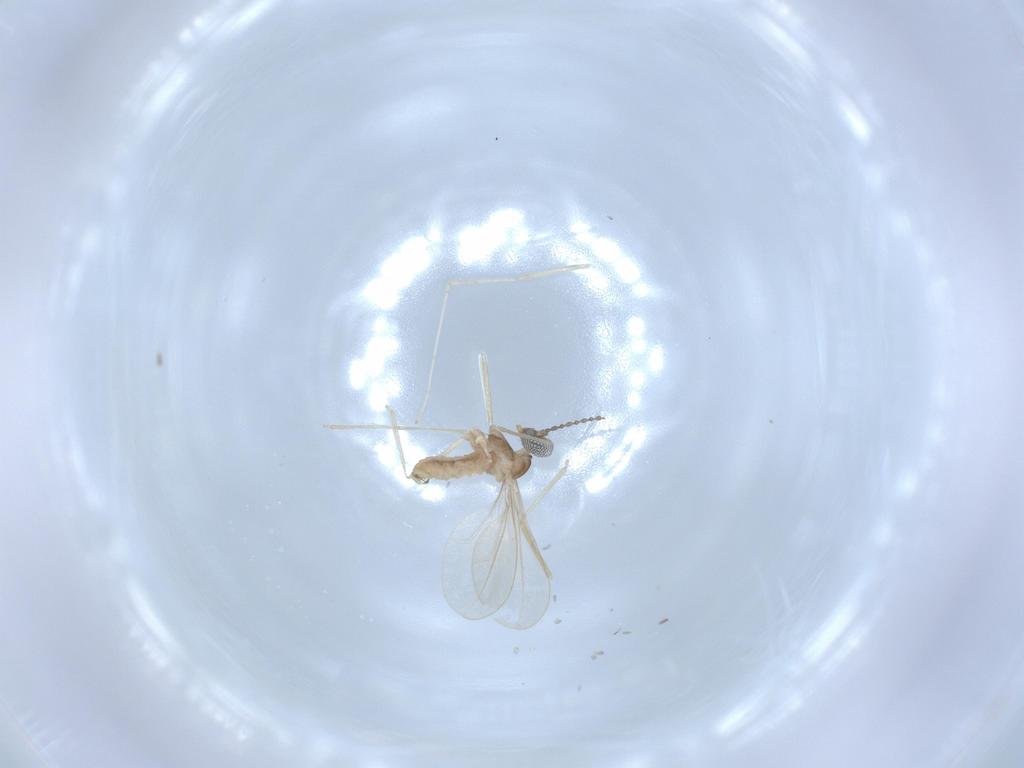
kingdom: Animalia
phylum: Arthropoda
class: Insecta
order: Diptera
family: Cecidomyiidae
